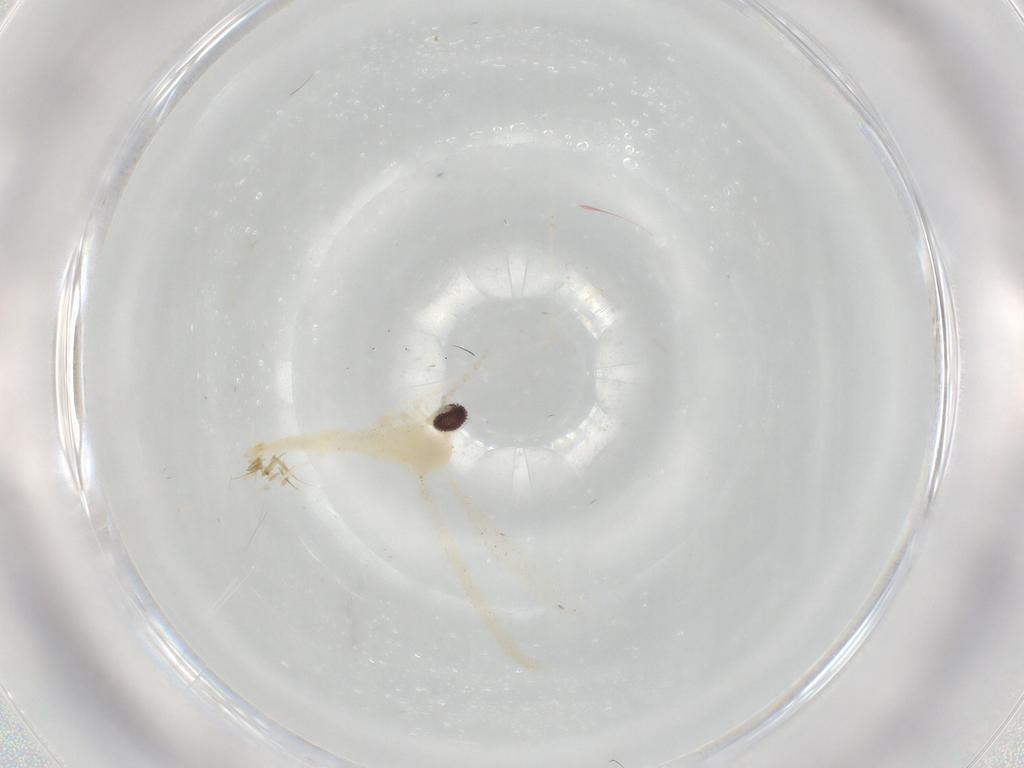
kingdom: Animalia
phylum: Arthropoda
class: Insecta
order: Diptera
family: Cecidomyiidae
